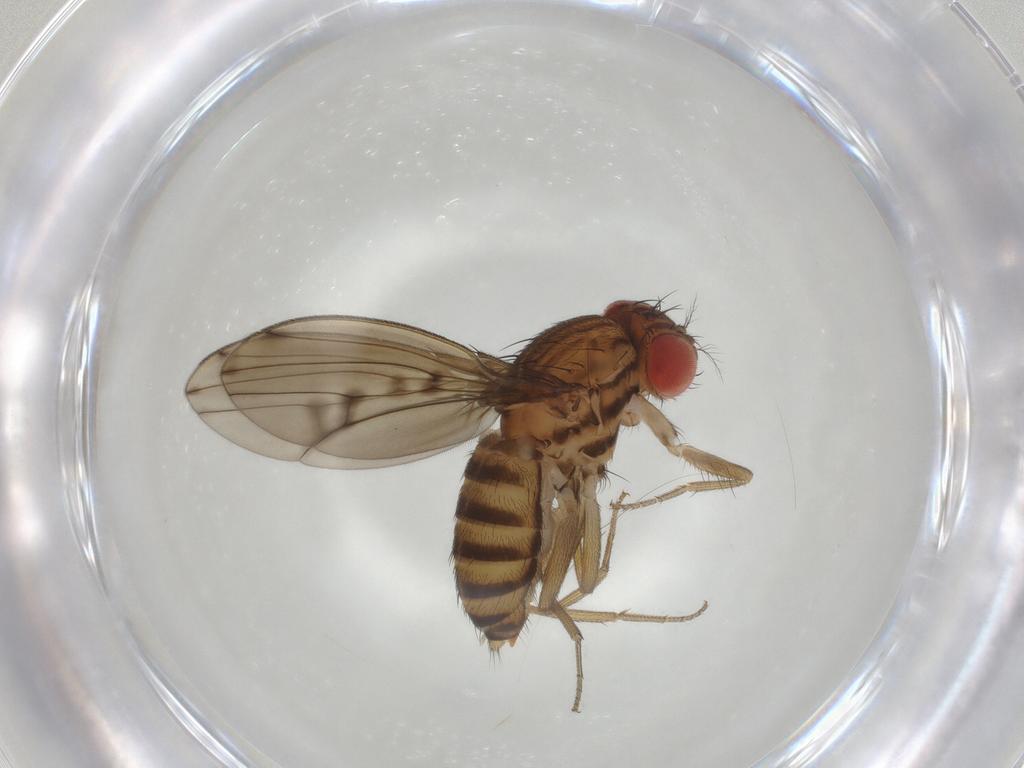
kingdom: Animalia
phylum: Arthropoda
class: Insecta
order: Diptera
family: Drosophilidae
